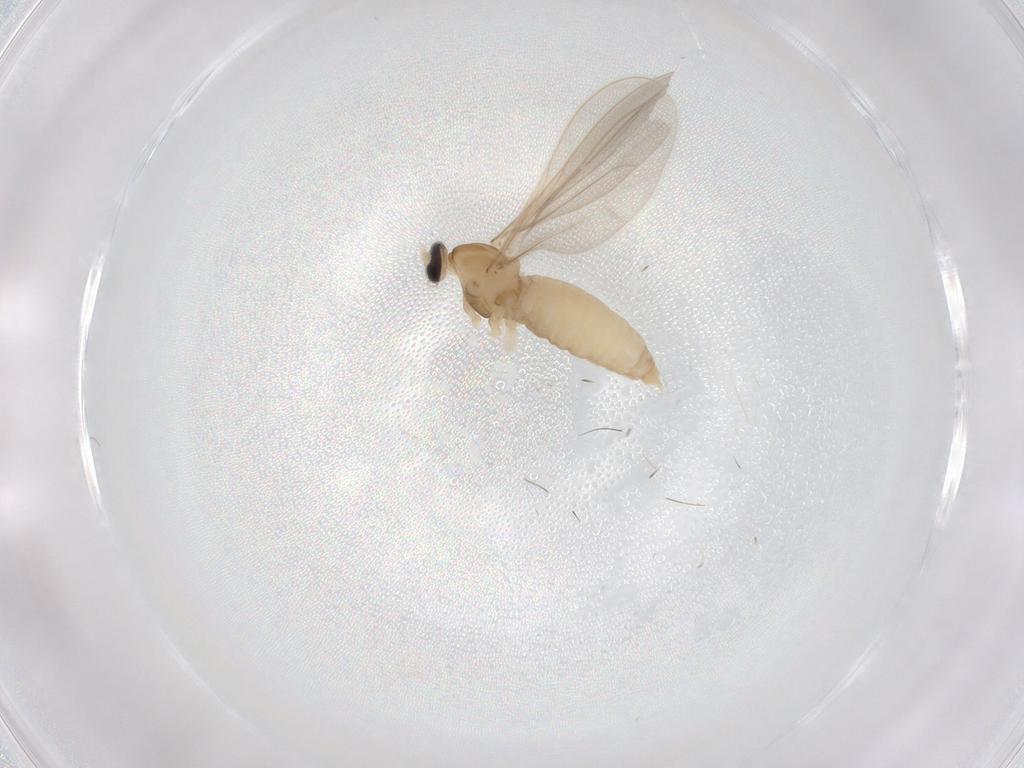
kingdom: Animalia
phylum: Arthropoda
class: Insecta
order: Diptera
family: Cecidomyiidae
